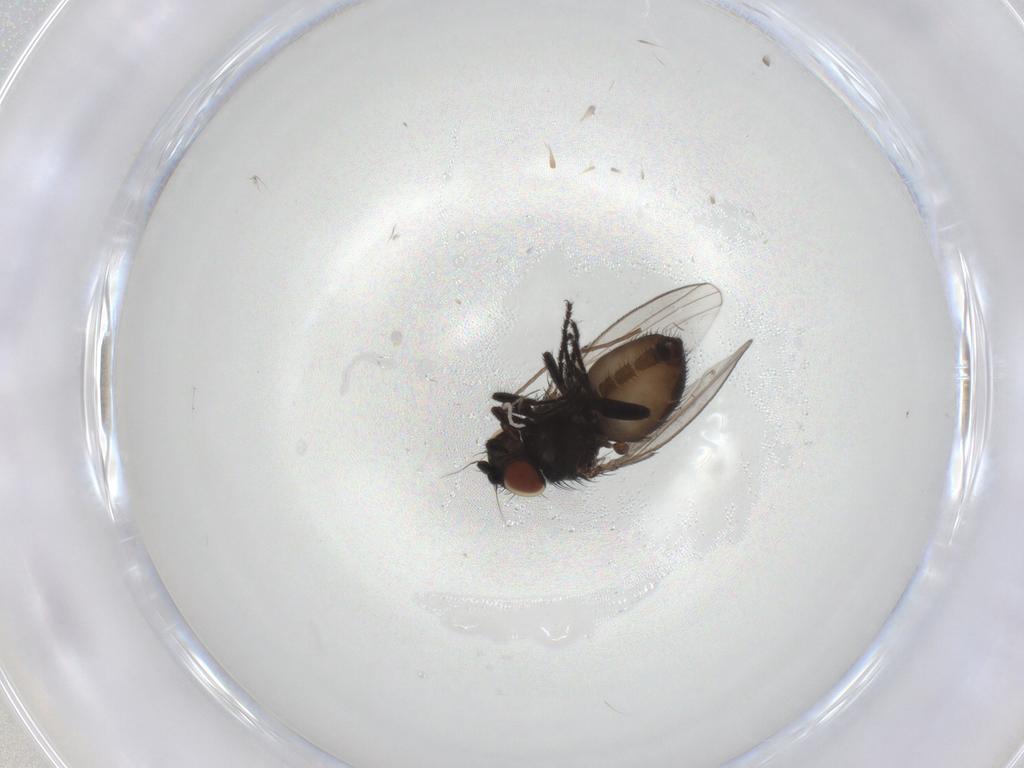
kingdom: Animalia
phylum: Arthropoda
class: Insecta
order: Diptera
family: Milichiidae
